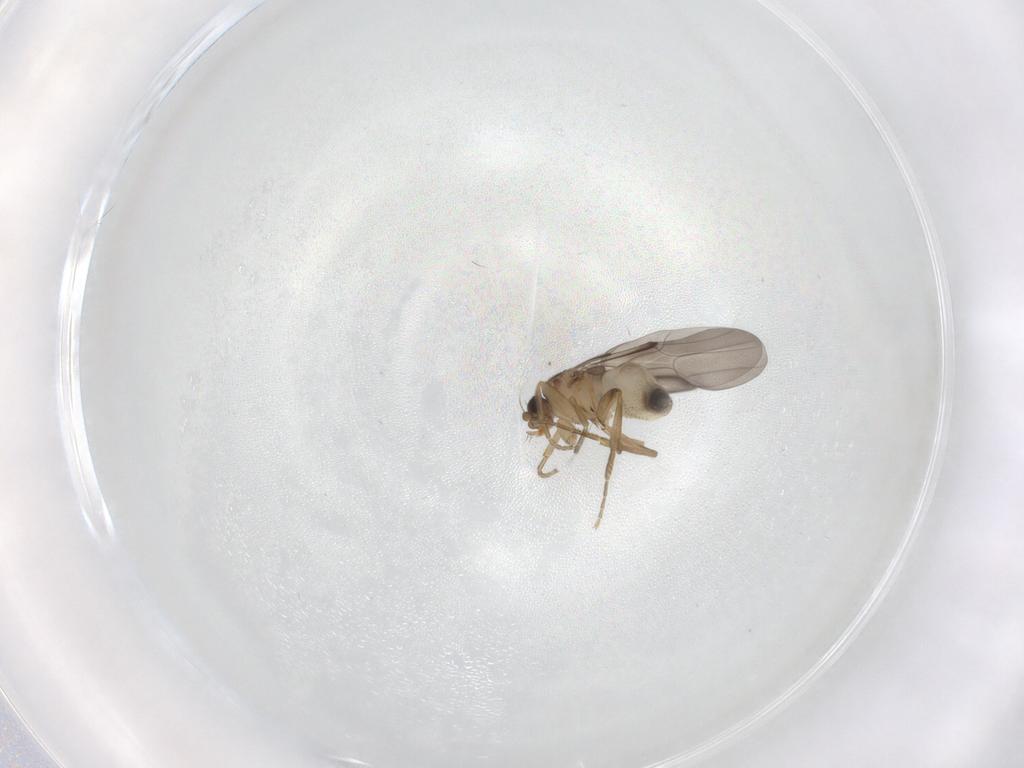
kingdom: Animalia
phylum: Arthropoda
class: Insecta
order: Diptera
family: Phoridae
